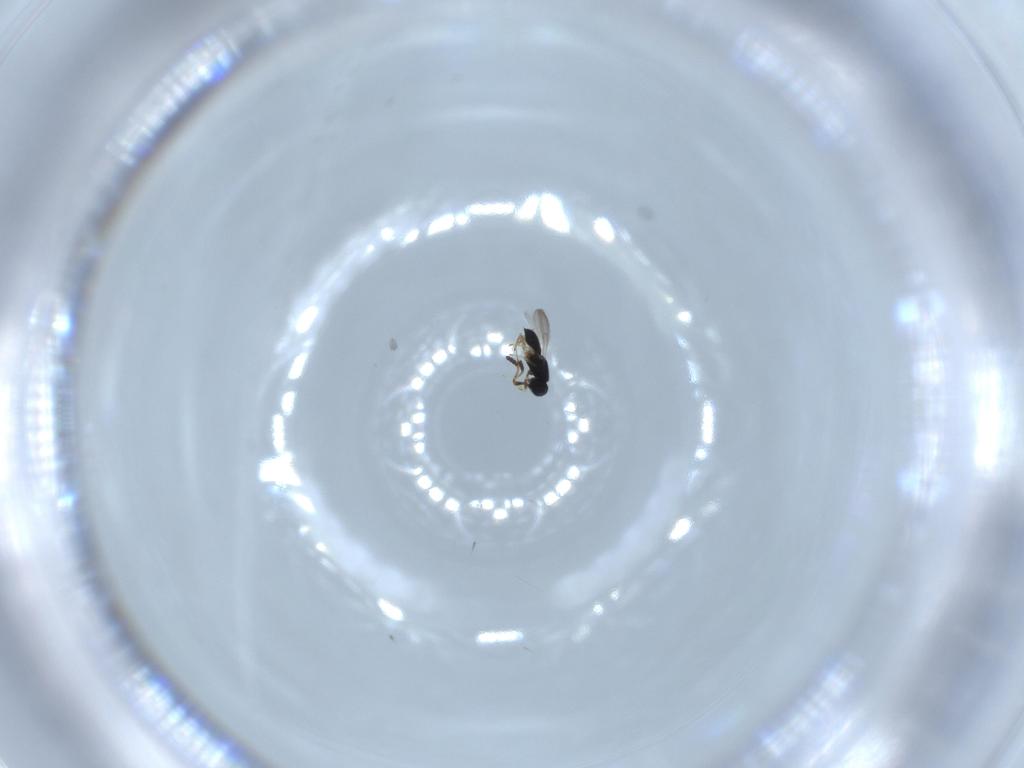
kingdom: Animalia
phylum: Arthropoda
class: Insecta
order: Hymenoptera
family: Scelionidae
